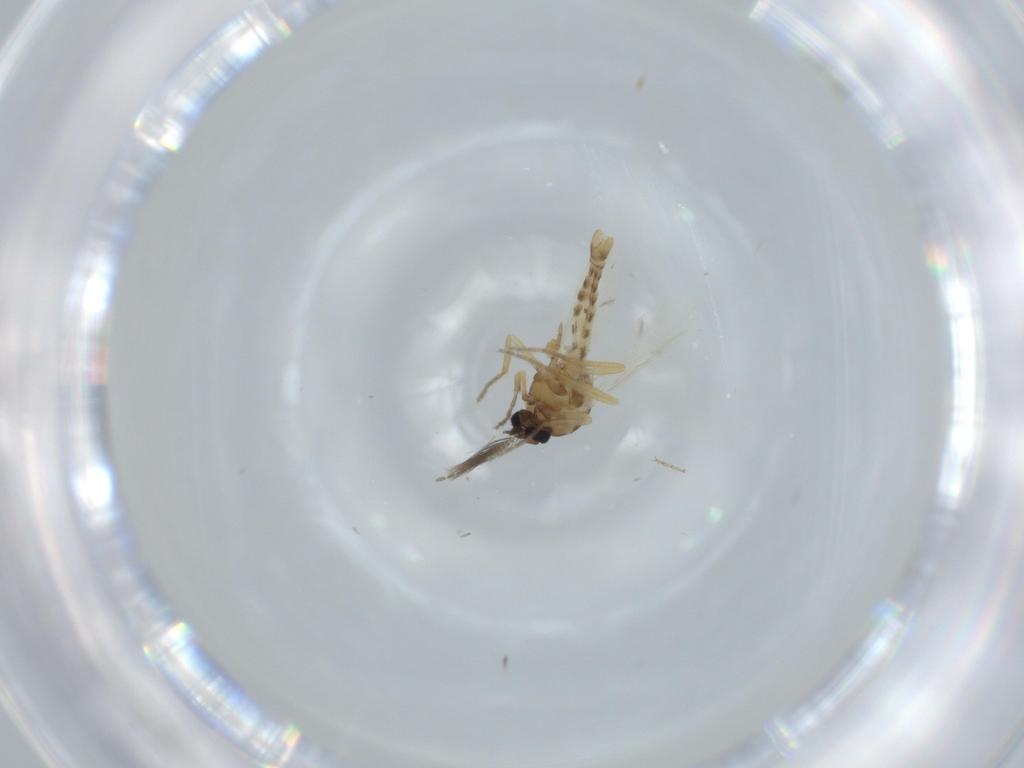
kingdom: Animalia
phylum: Arthropoda
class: Insecta
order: Diptera
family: Ceratopogonidae
